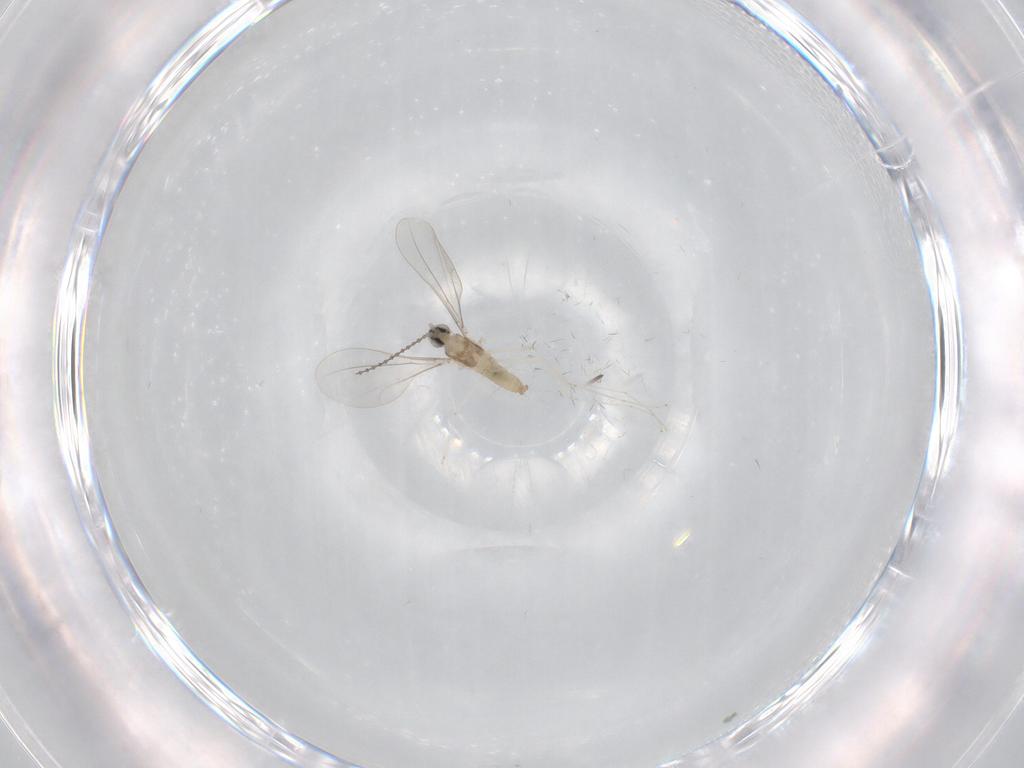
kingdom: Animalia
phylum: Arthropoda
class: Insecta
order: Diptera
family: Cecidomyiidae
